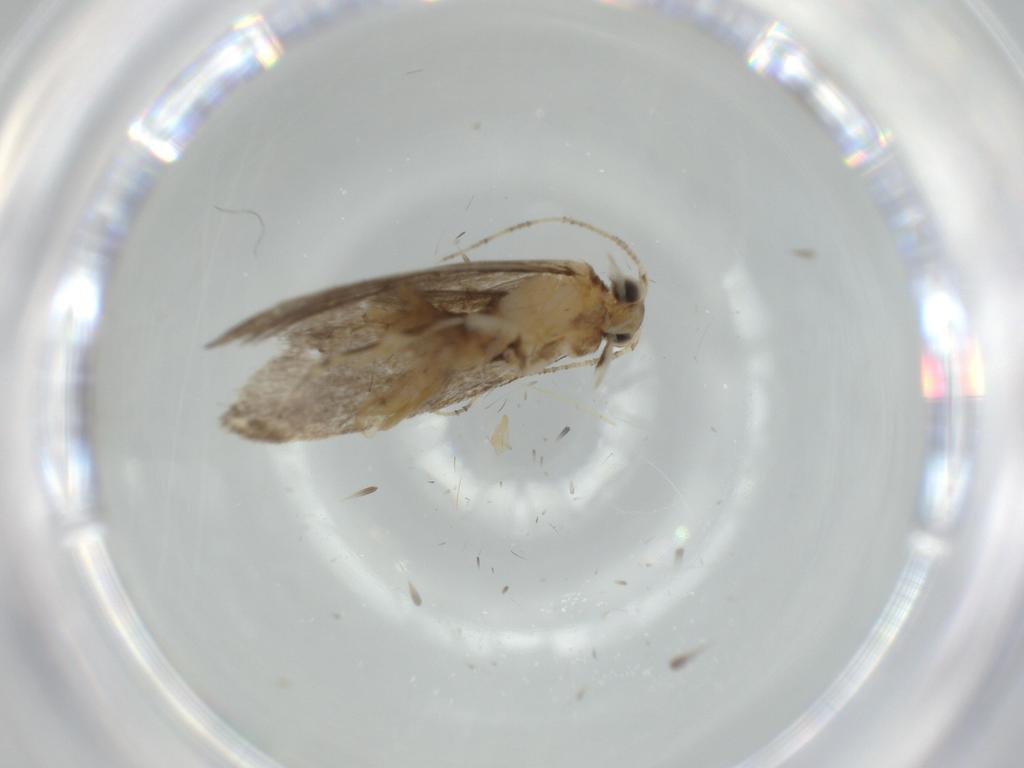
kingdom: Animalia
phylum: Arthropoda
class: Insecta
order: Lepidoptera
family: Tineidae
